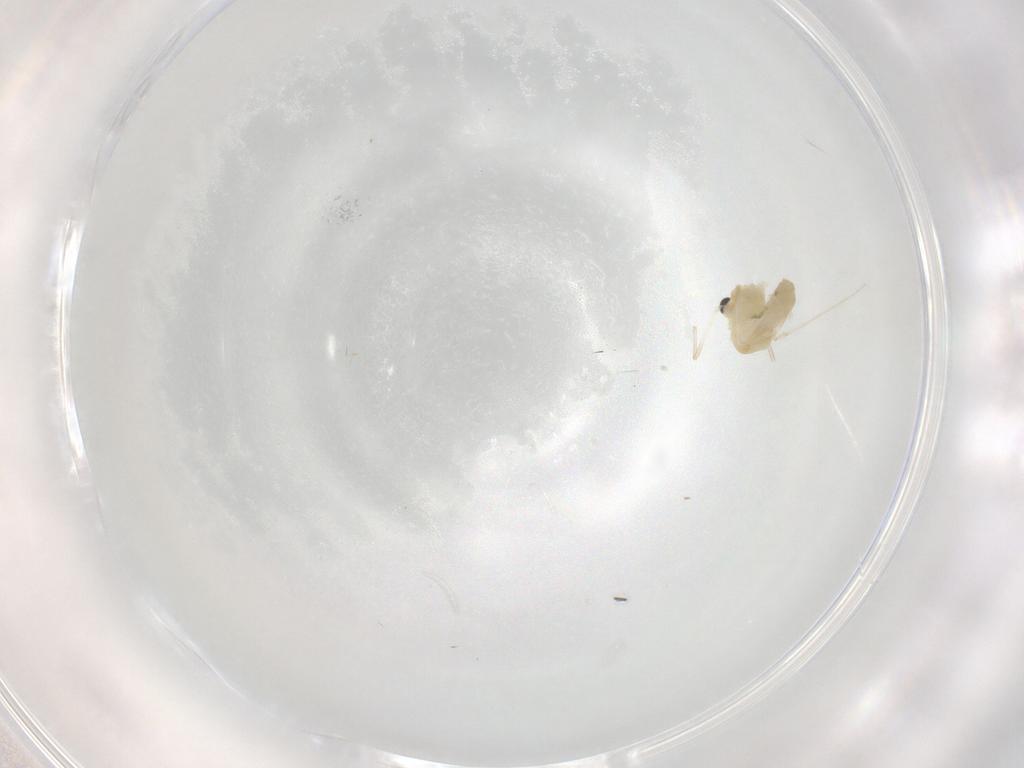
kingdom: Animalia
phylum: Arthropoda
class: Insecta
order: Diptera
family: Chironomidae
